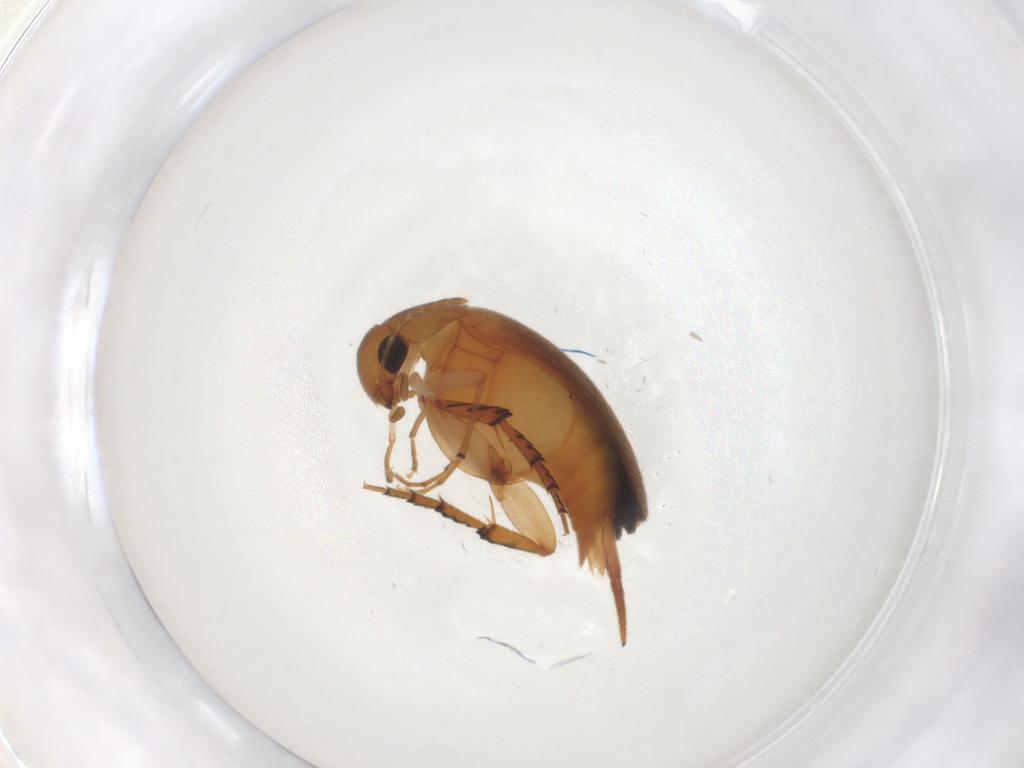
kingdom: Animalia
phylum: Arthropoda
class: Insecta
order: Coleoptera
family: Mordellidae
